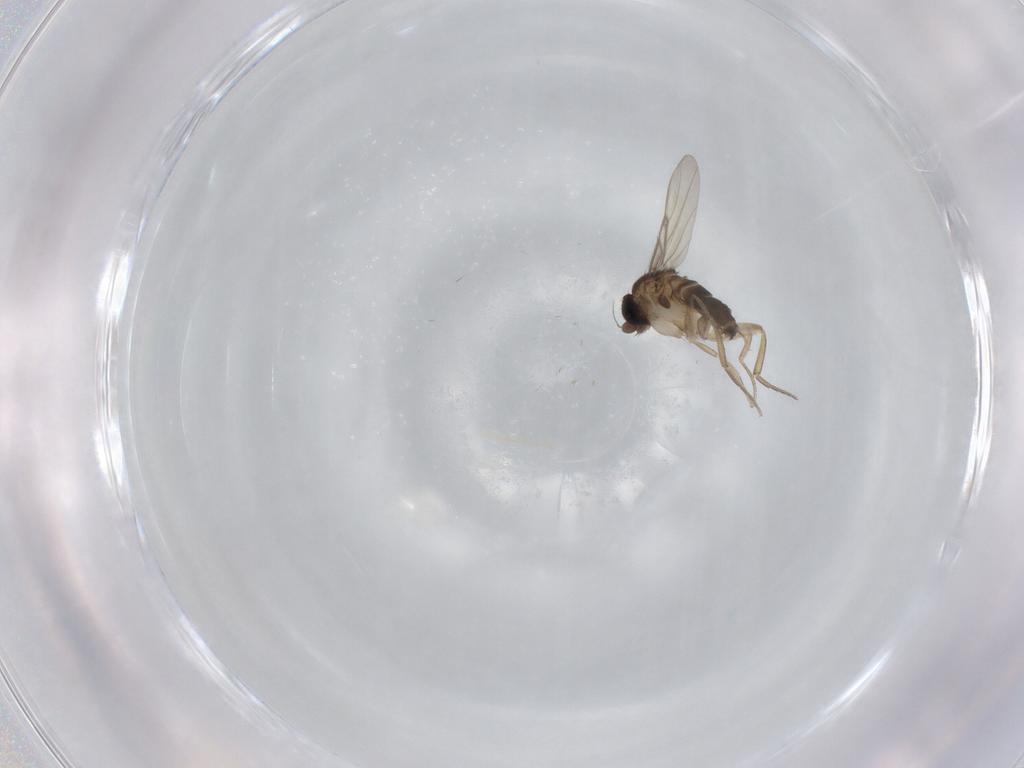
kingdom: Animalia
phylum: Arthropoda
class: Insecta
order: Diptera
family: Phoridae
